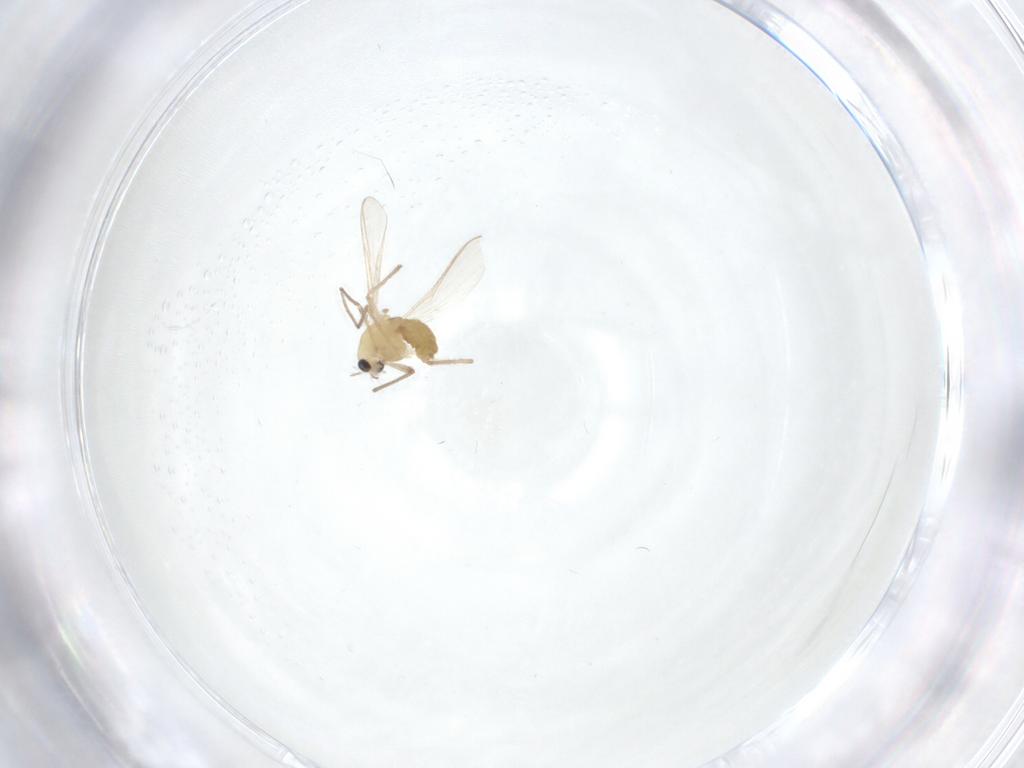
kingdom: Animalia
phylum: Arthropoda
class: Insecta
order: Diptera
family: Chironomidae
